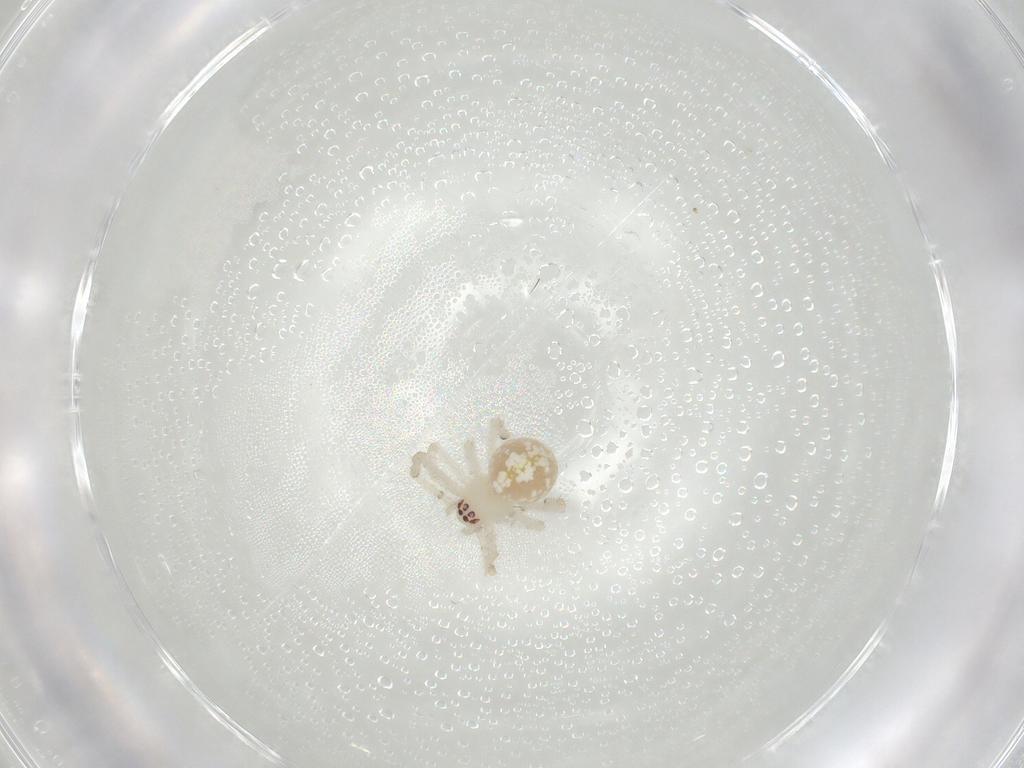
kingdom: Animalia
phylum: Arthropoda
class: Arachnida
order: Araneae
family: Theridiidae
